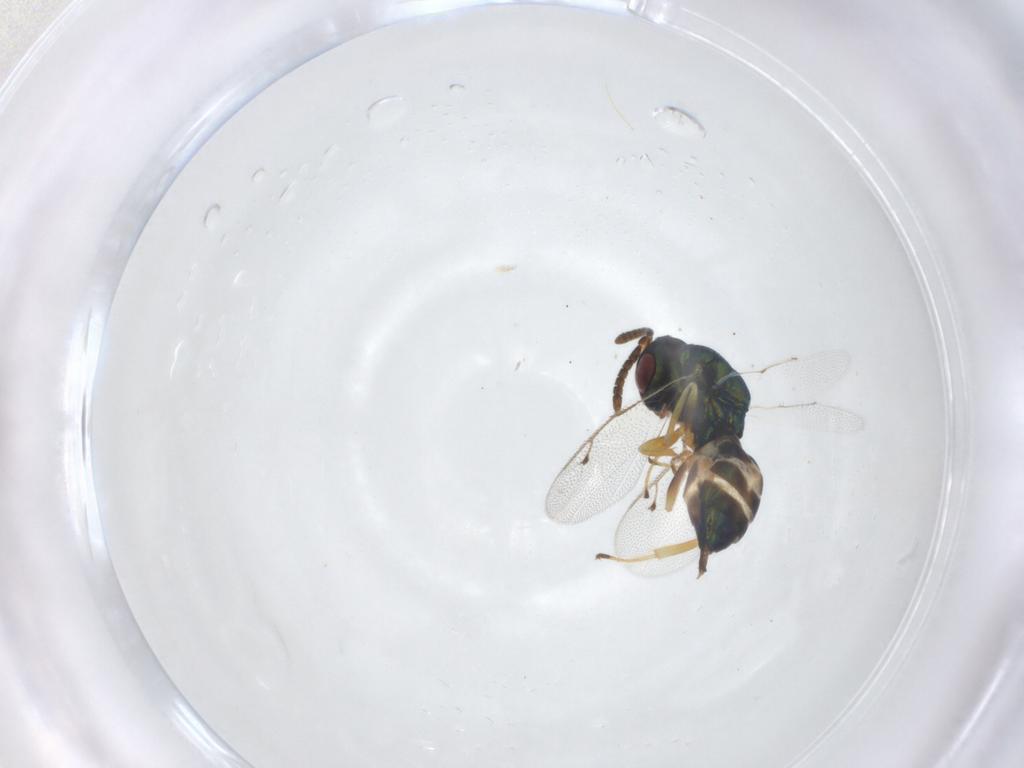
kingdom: Animalia
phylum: Arthropoda
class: Insecta
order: Hymenoptera
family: Pteromalidae
